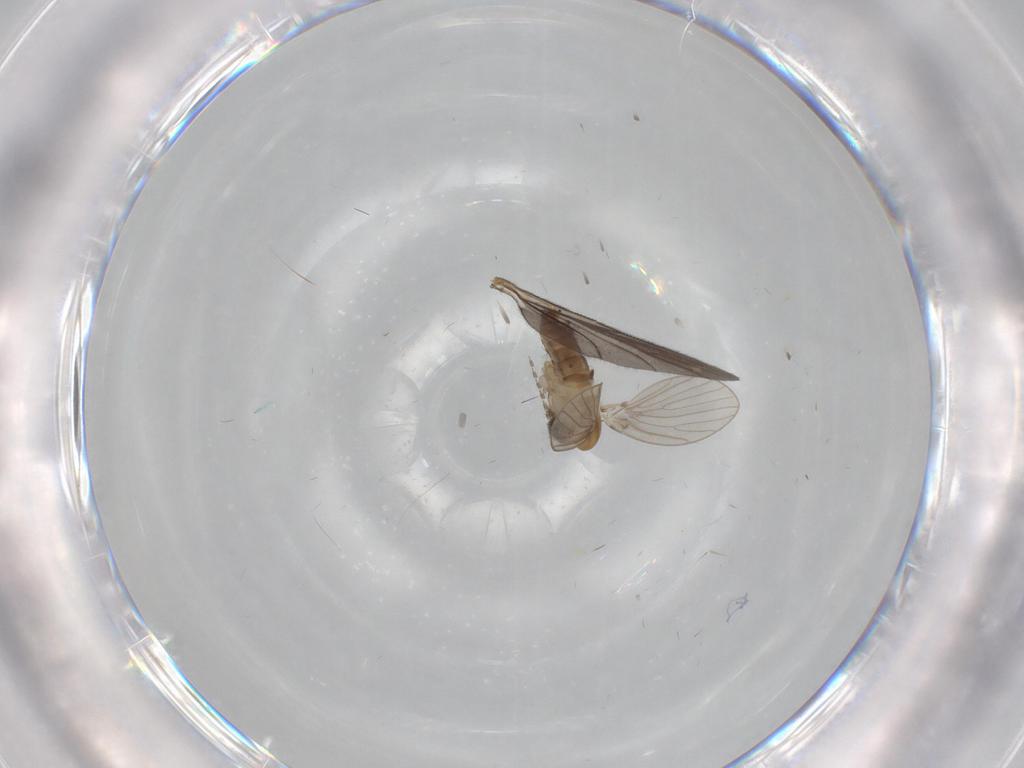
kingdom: Animalia
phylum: Arthropoda
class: Insecta
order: Diptera
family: Sciaridae
